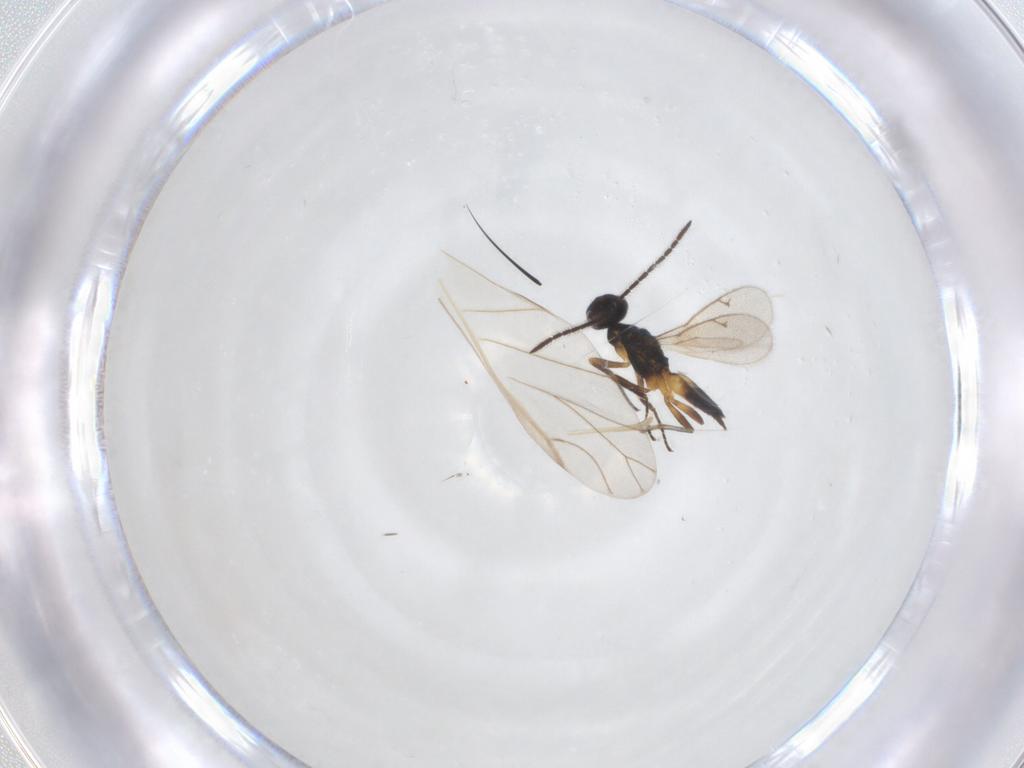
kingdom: Animalia
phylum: Arthropoda
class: Insecta
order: Hymenoptera
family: Eupelmidae
